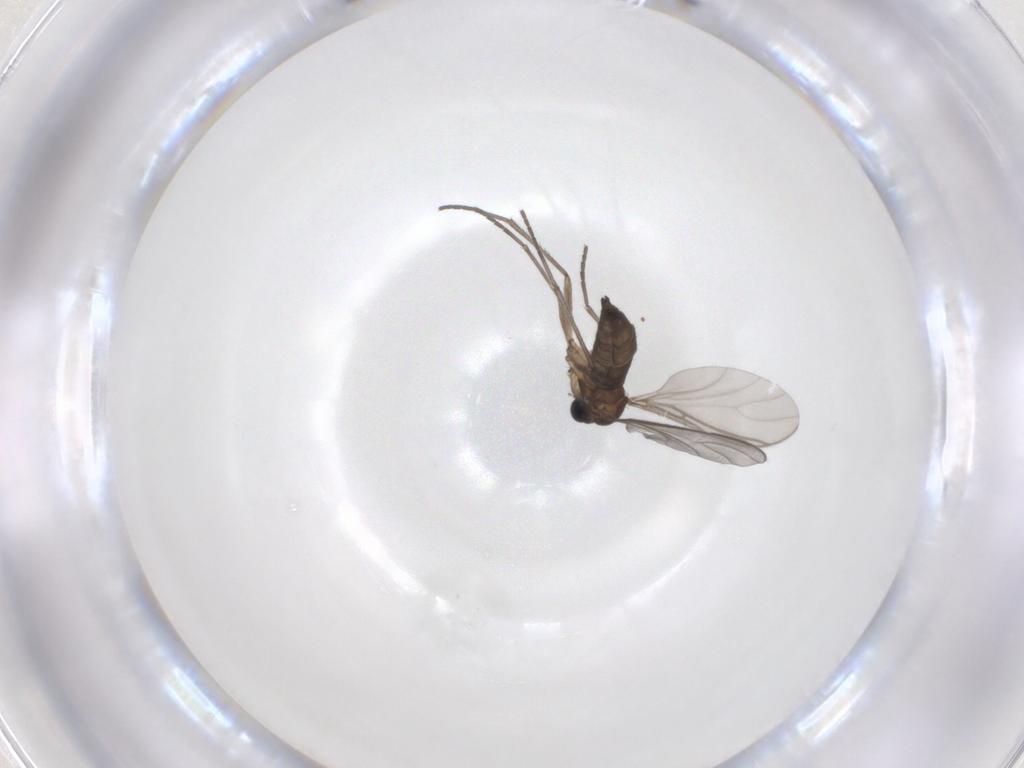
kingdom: Animalia
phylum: Arthropoda
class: Insecta
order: Diptera
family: Sciaridae
